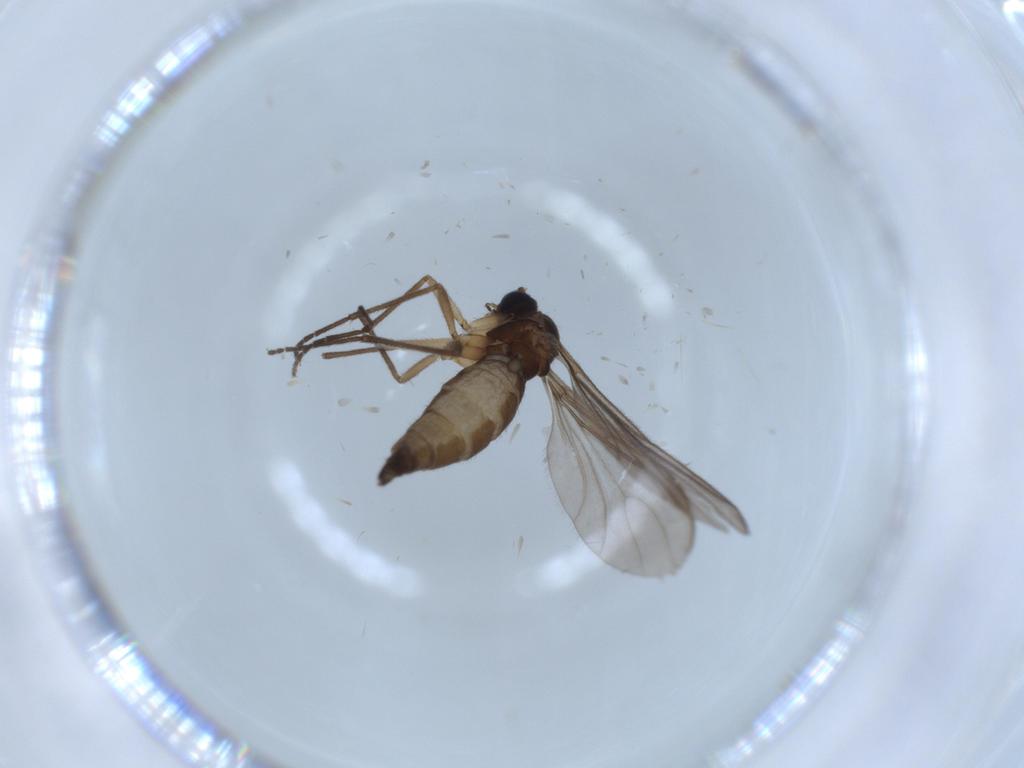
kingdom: Animalia
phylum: Arthropoda
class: Insecta
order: Diptera
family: Sciaridae
